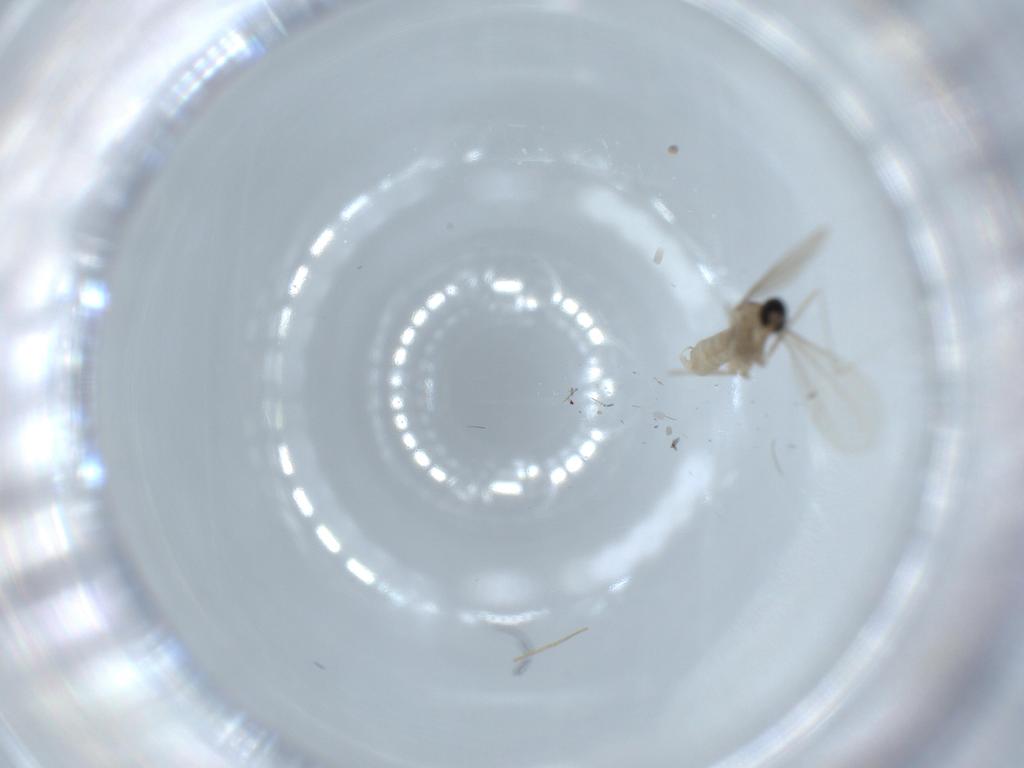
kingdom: Animalia
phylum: Arthropoda
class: Insecta
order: Diptera
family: Cecidomyiidae
